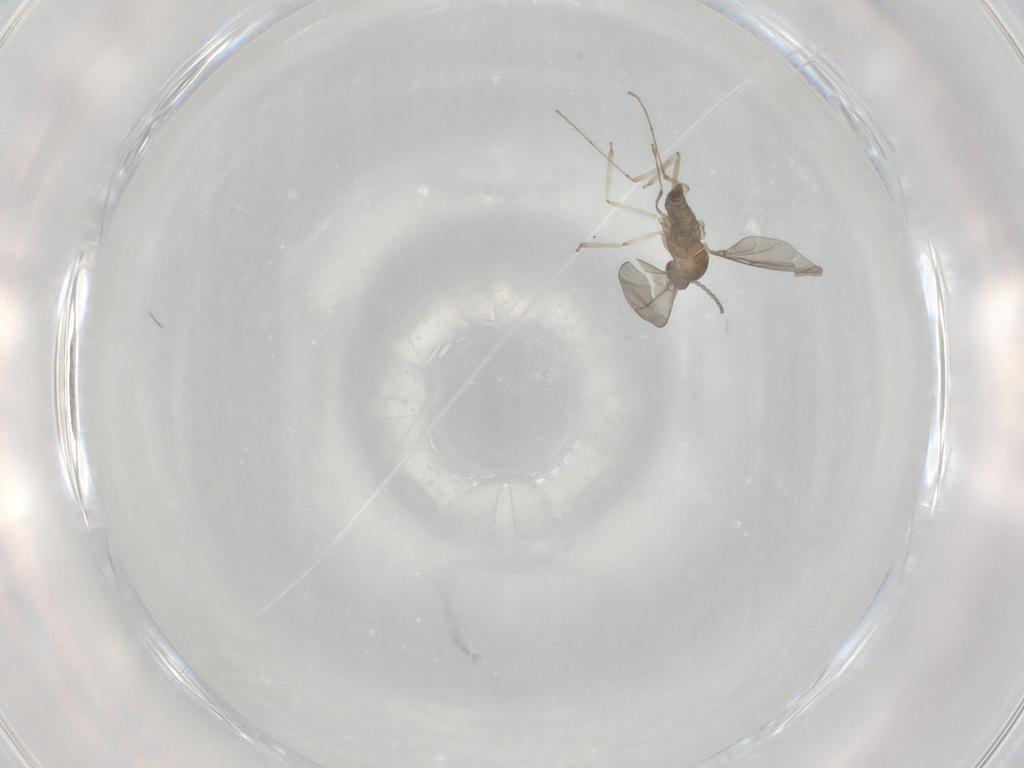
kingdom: Animalia
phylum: Arthropoda
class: Insecta
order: Diptera
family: Cecidomyiidae
